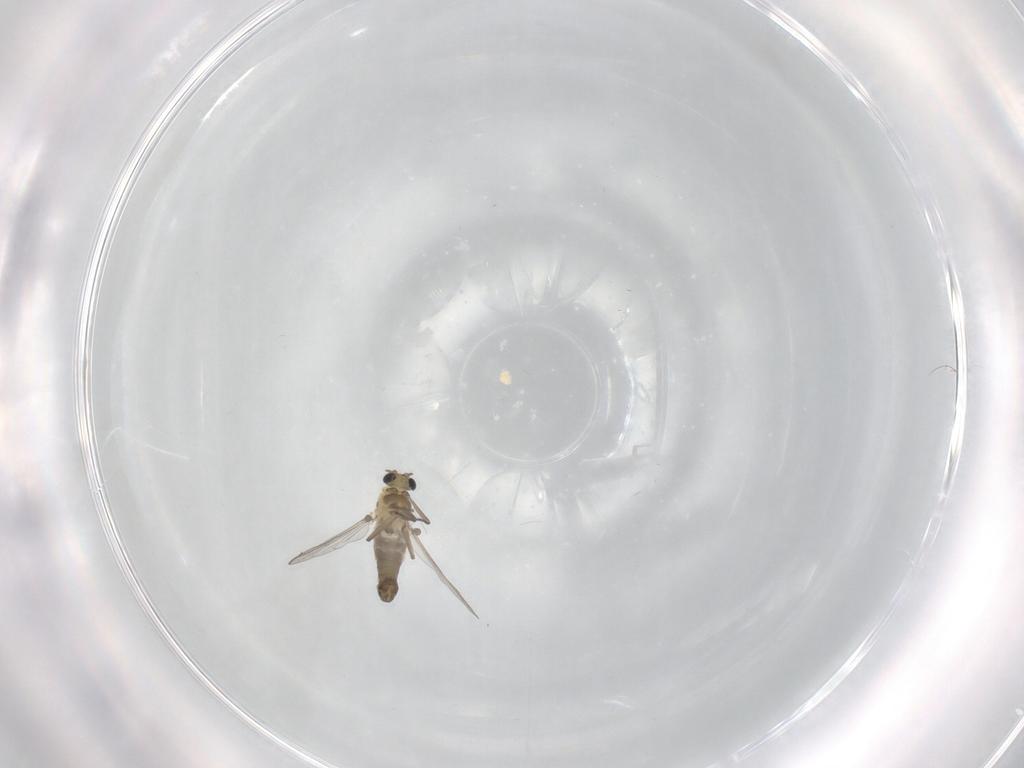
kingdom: Animalia
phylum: Arthropoda
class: Insecta
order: Diptera
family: Chironomidae
